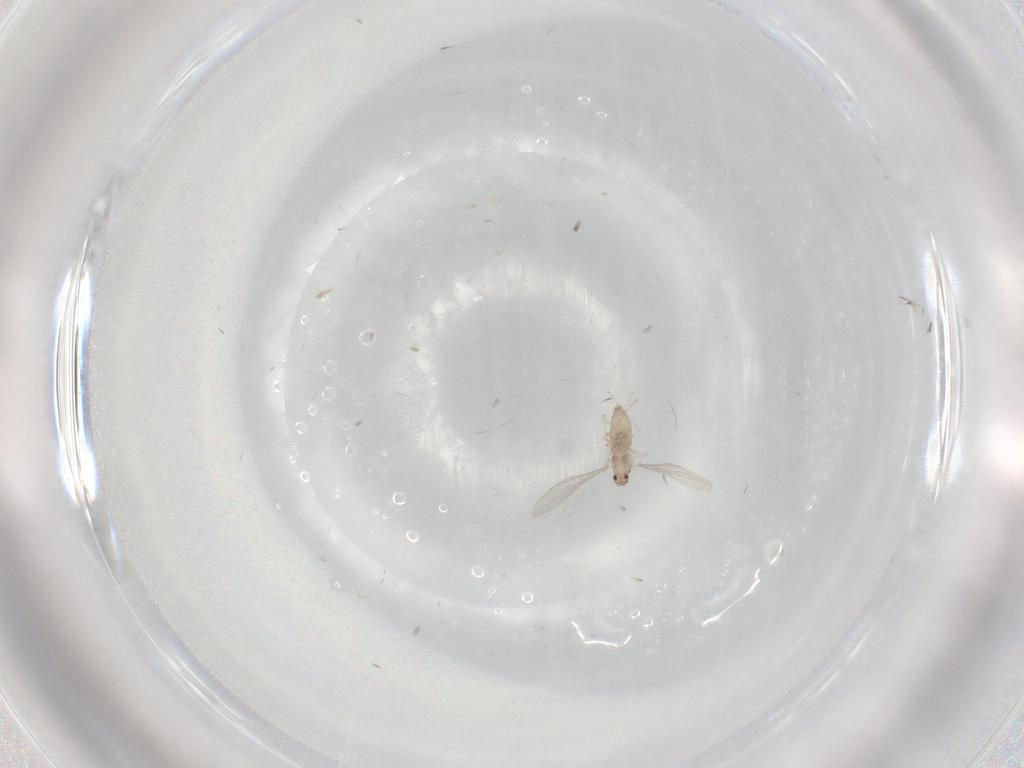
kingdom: Animalia
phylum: Arthropoda
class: Insecta
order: Diptera
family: Cecidomyiidae
